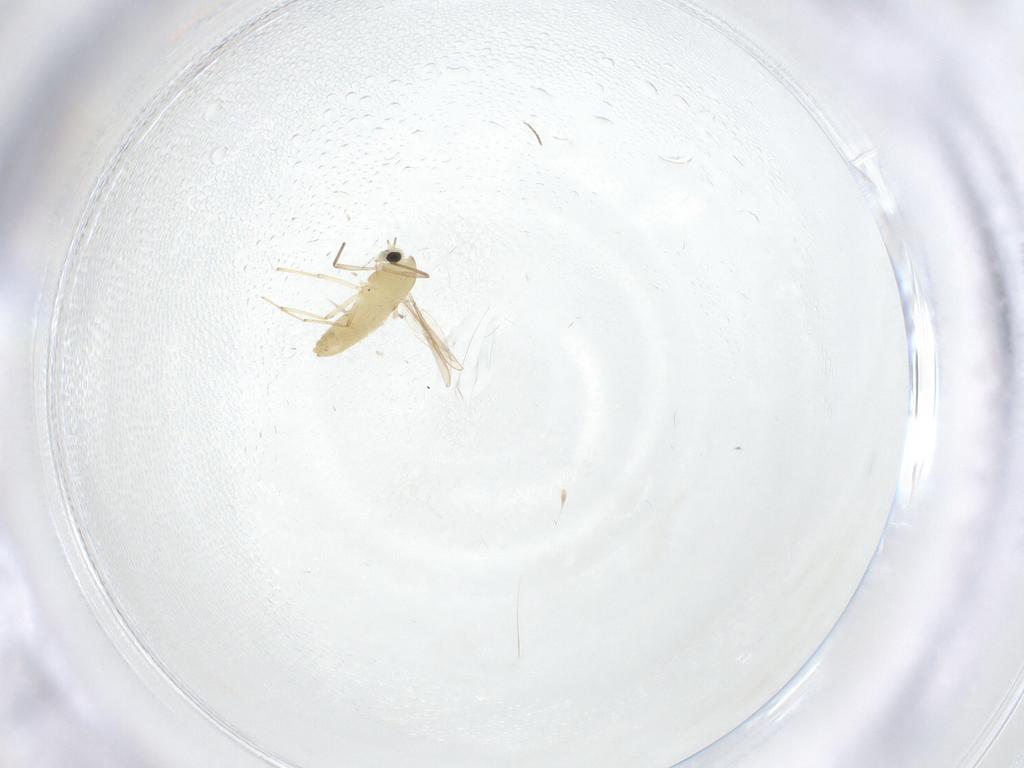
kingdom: Animalia
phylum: Arthropoda
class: Insecta
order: Diptera
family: Chironomidae
